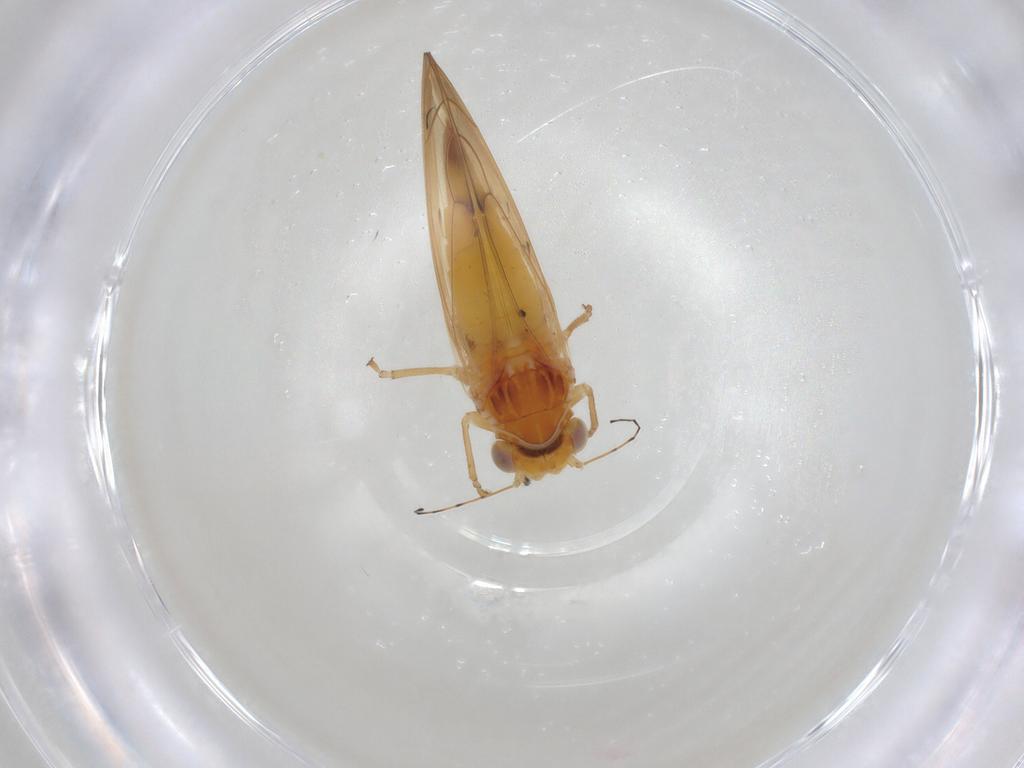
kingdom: Animalia
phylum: Arthropoda
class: Insecta
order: Diptera
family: Cecidomyiidae
